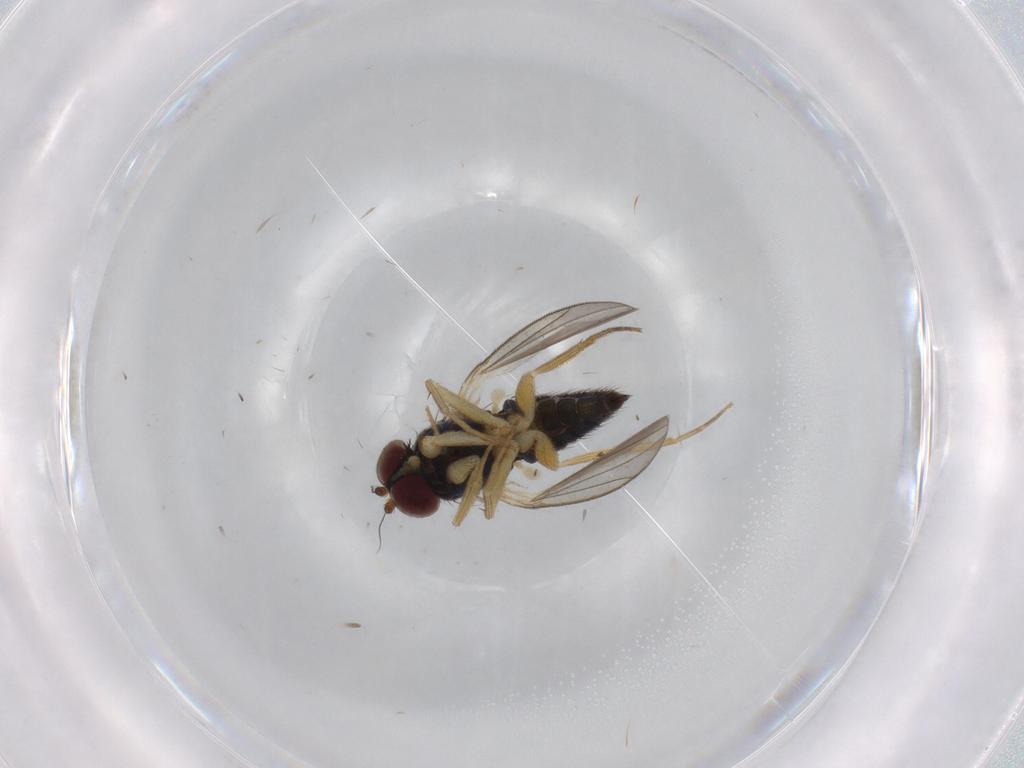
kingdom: Animalia
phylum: Arthropoda
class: Insecta
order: Diptera
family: Dolichopodidae
